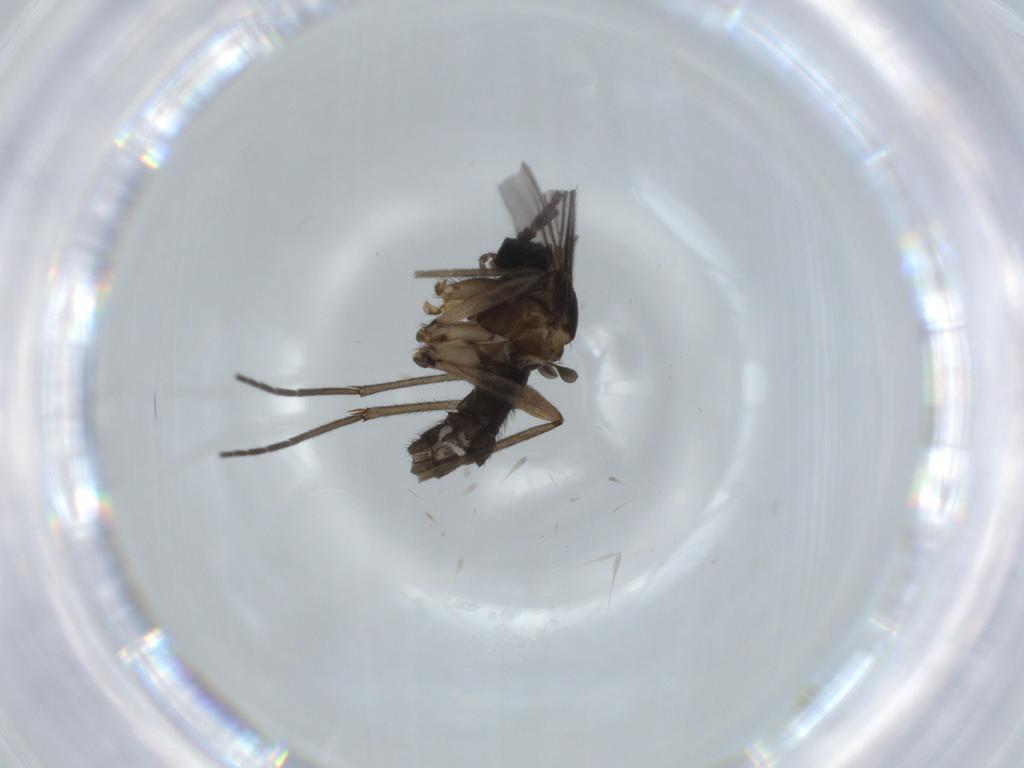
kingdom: Animalia
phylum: Arthropoda
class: Insecta
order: Diptera
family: Sciaridae
